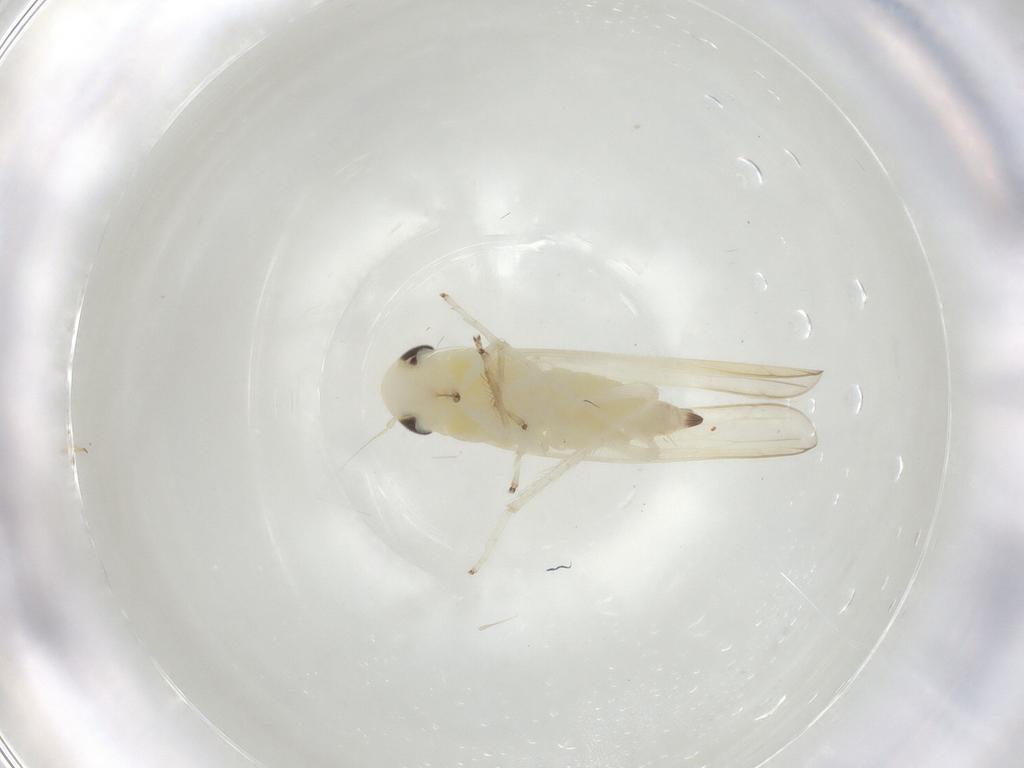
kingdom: Animalia
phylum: Arthropoda
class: Insecta
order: Hemiptera
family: Cicadellidae
